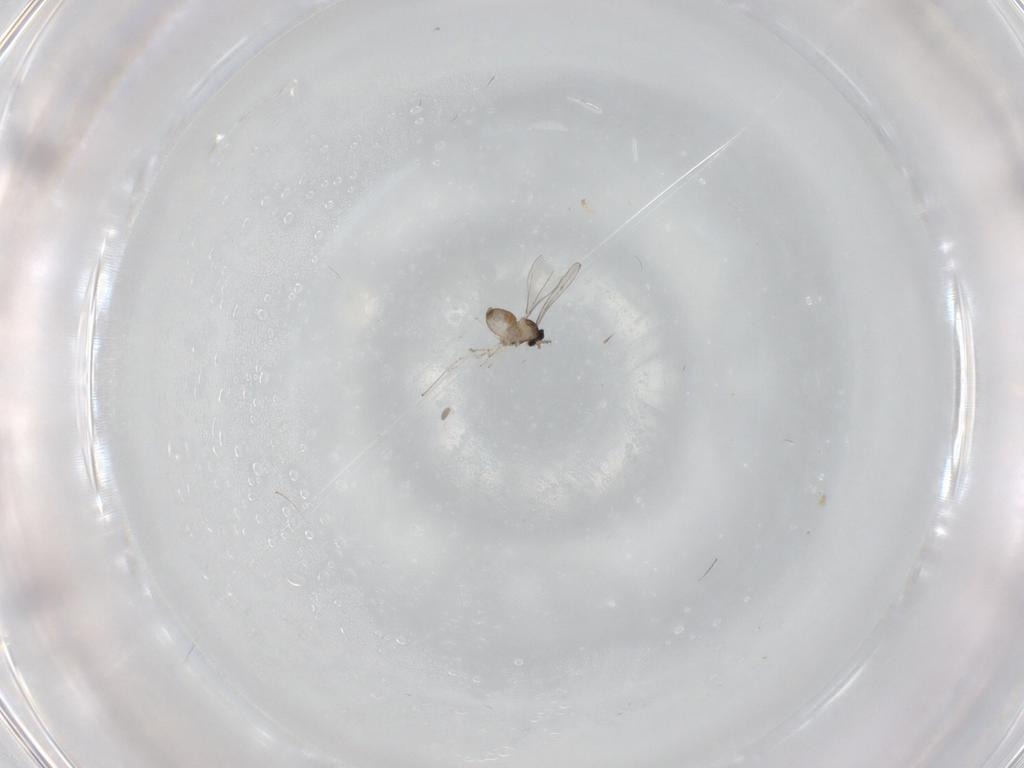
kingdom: Animalia
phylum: Arthropoda
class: Insecta
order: Diptera
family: Cecidomyiidae
